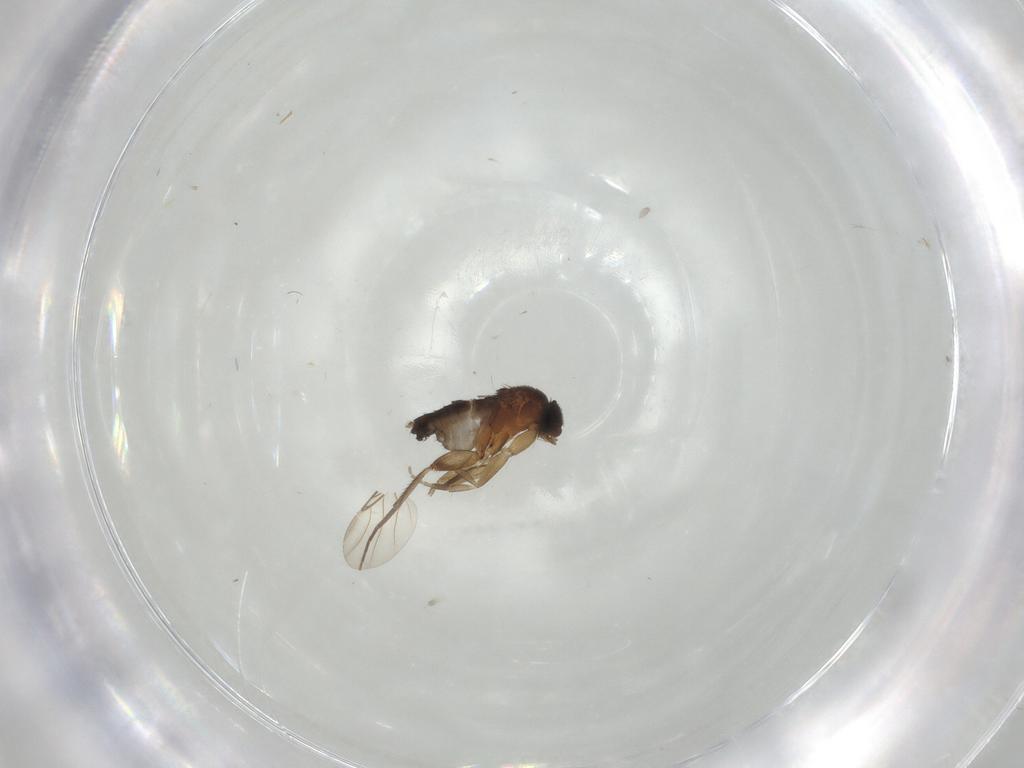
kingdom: Animalia
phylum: Arthropoda
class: Insecta
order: Diptera
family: Phoridae
